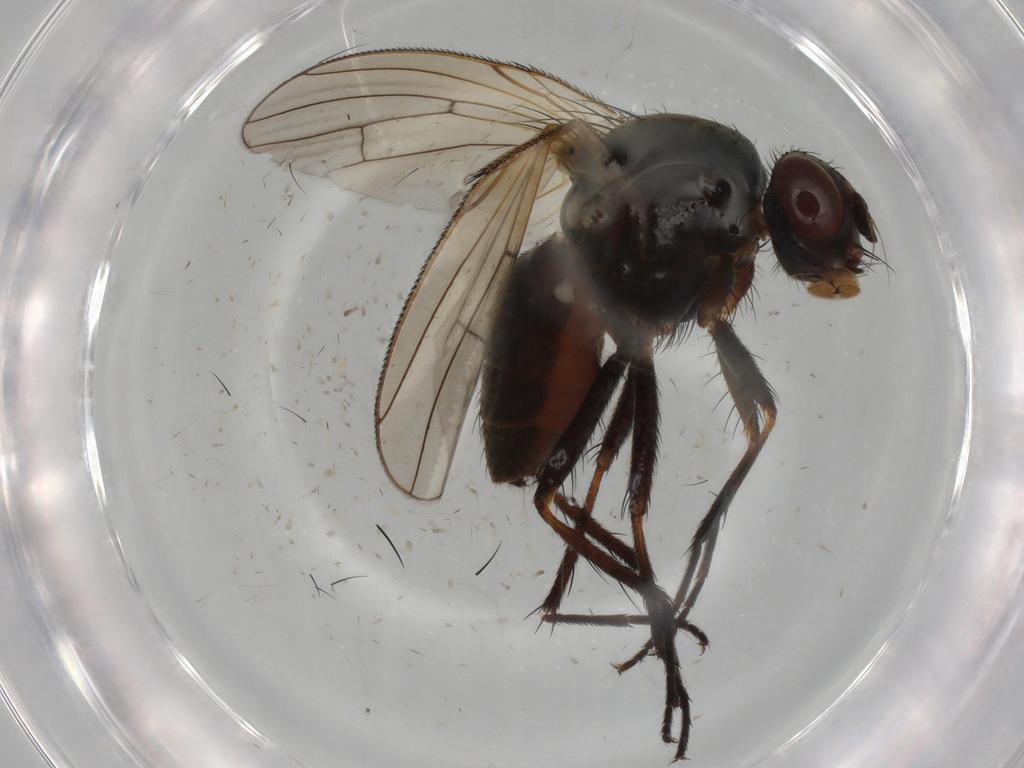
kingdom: Animalia
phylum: Arthropoda
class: Insecta
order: Diptera
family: Anthomyiidae
